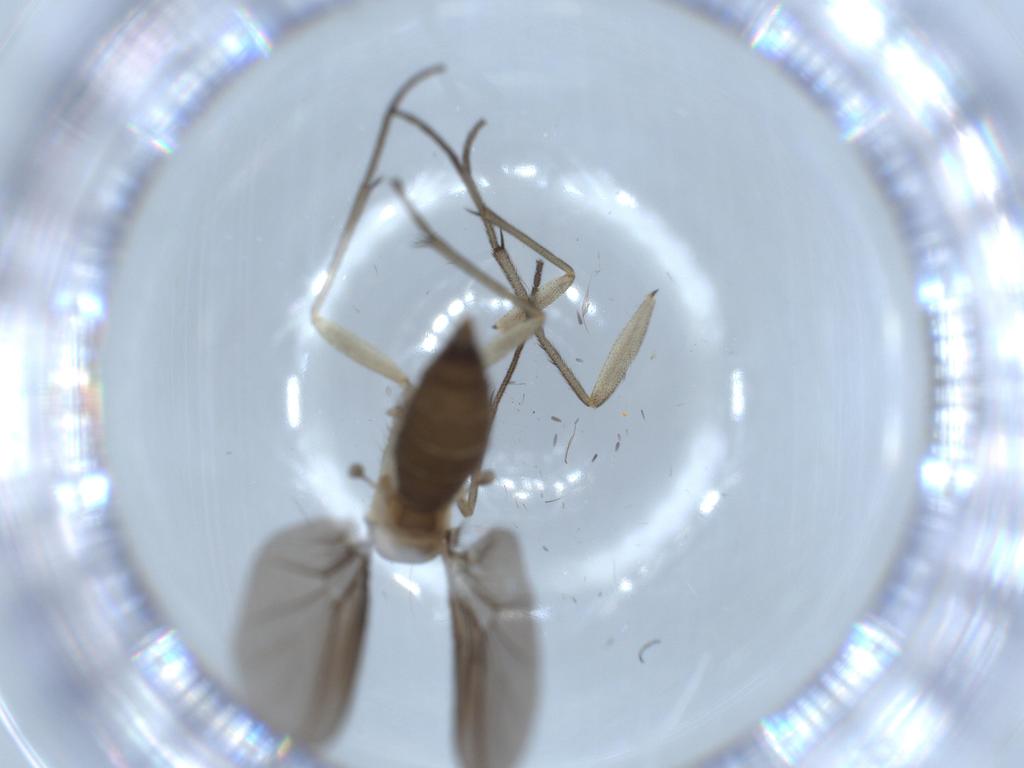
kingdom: Animalia
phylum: Arthropoda
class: Insecta
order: Diptera
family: Diadocidiidae
